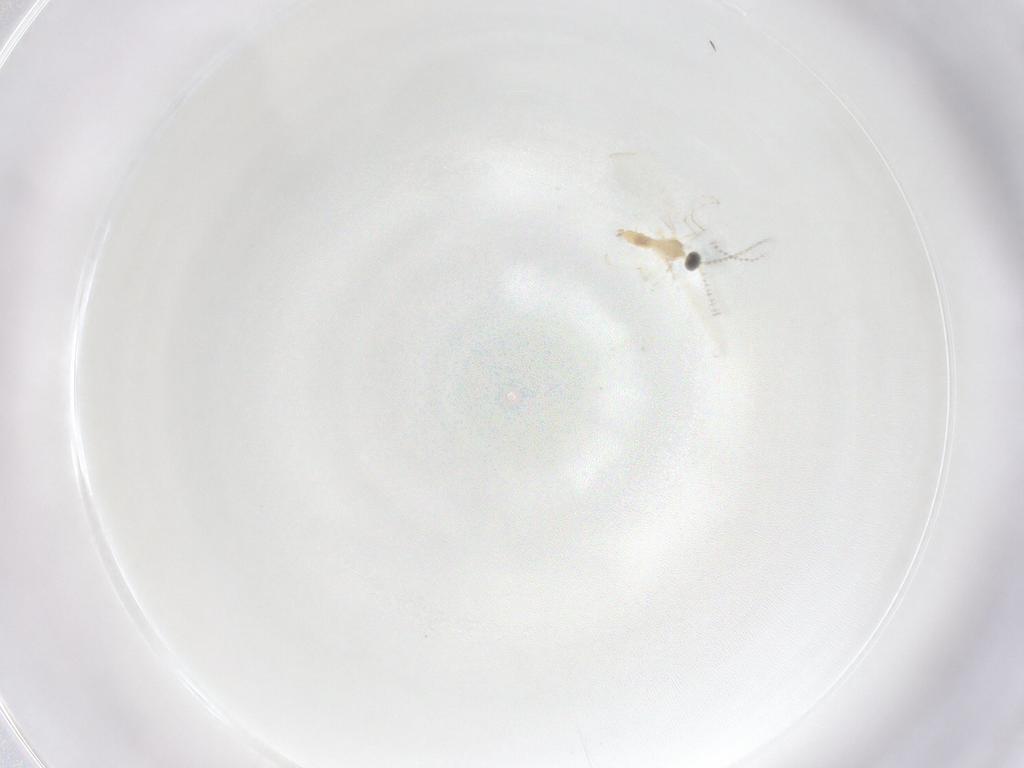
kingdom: Animalia
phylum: Arthropoda
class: Insecta
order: Diptera
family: Cecidomyiidae
